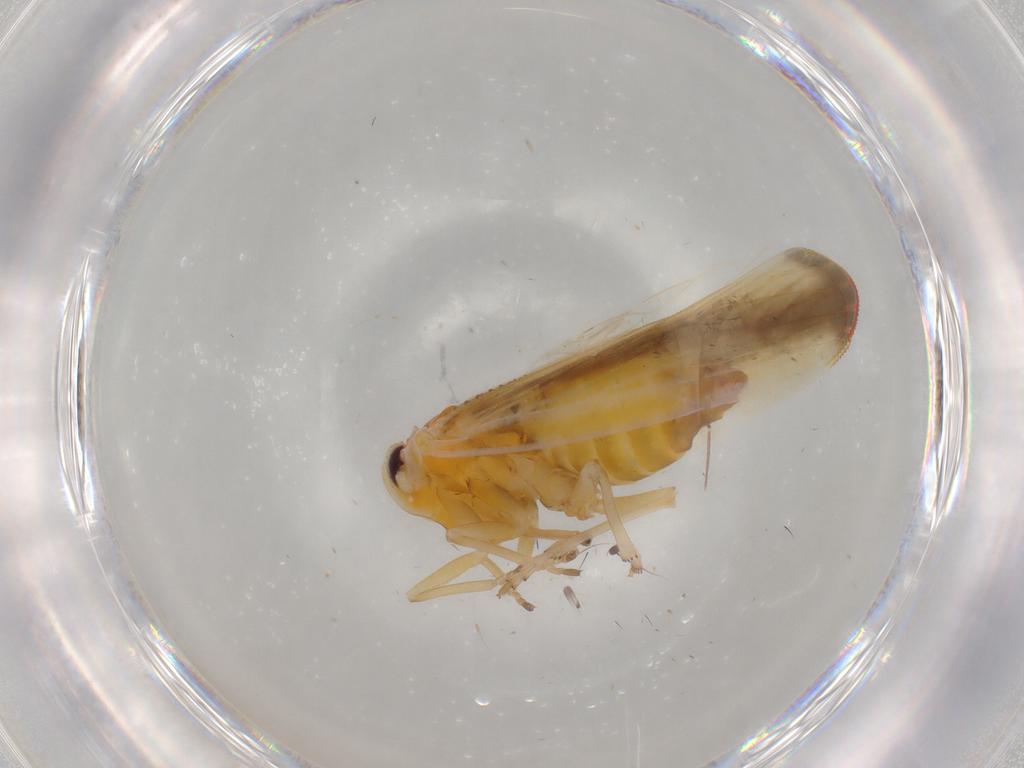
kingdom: Animalia
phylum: Arthropoda
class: Insecta
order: Hemiptera
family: Derbidae
